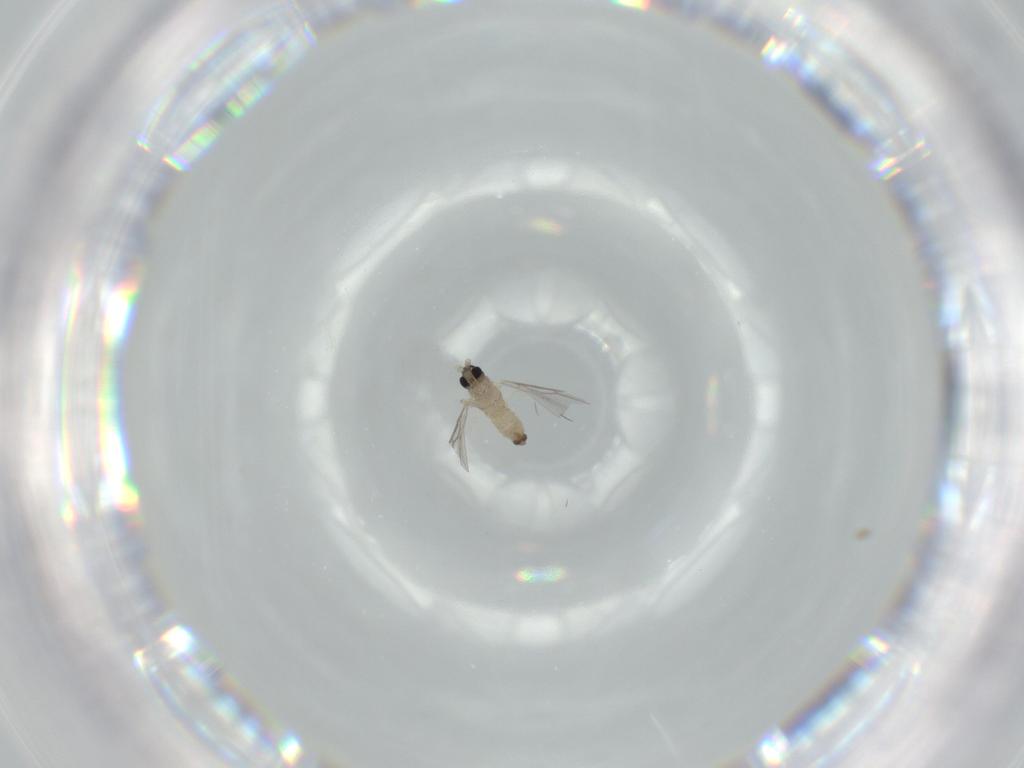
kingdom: Animalia
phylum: Arthropoda
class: Insecta
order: Diptera
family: Cecidomyiidae
